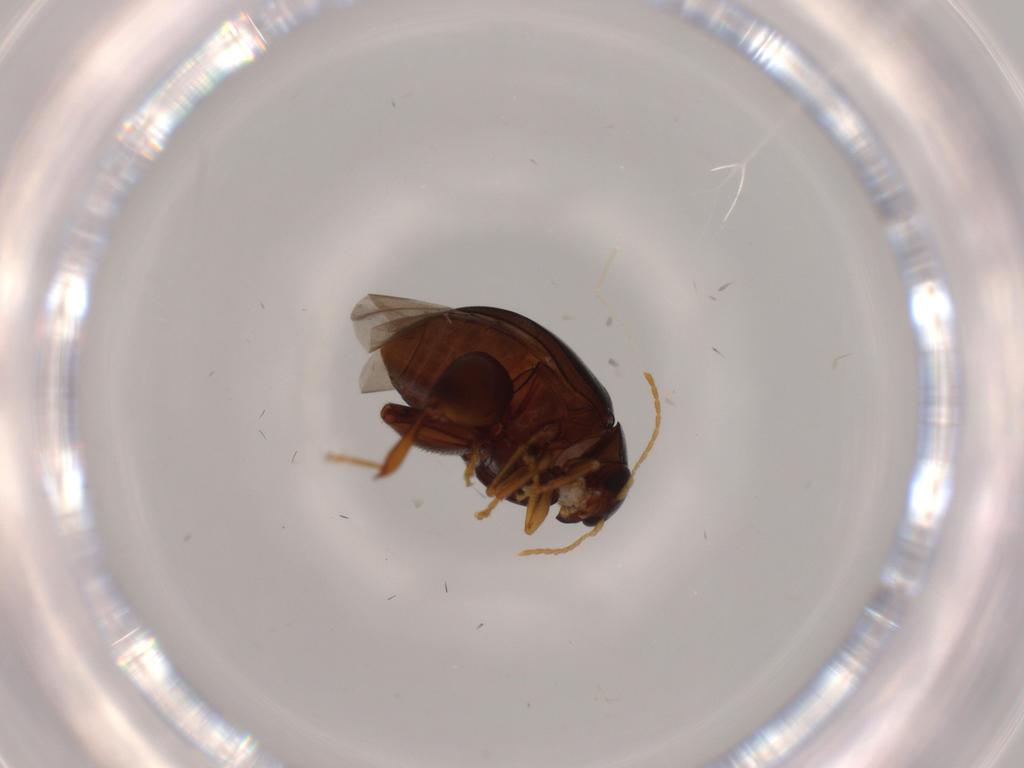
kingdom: Animalia
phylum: Arthropoda
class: Insecta
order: Coleoptera
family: Chrysomelidae
